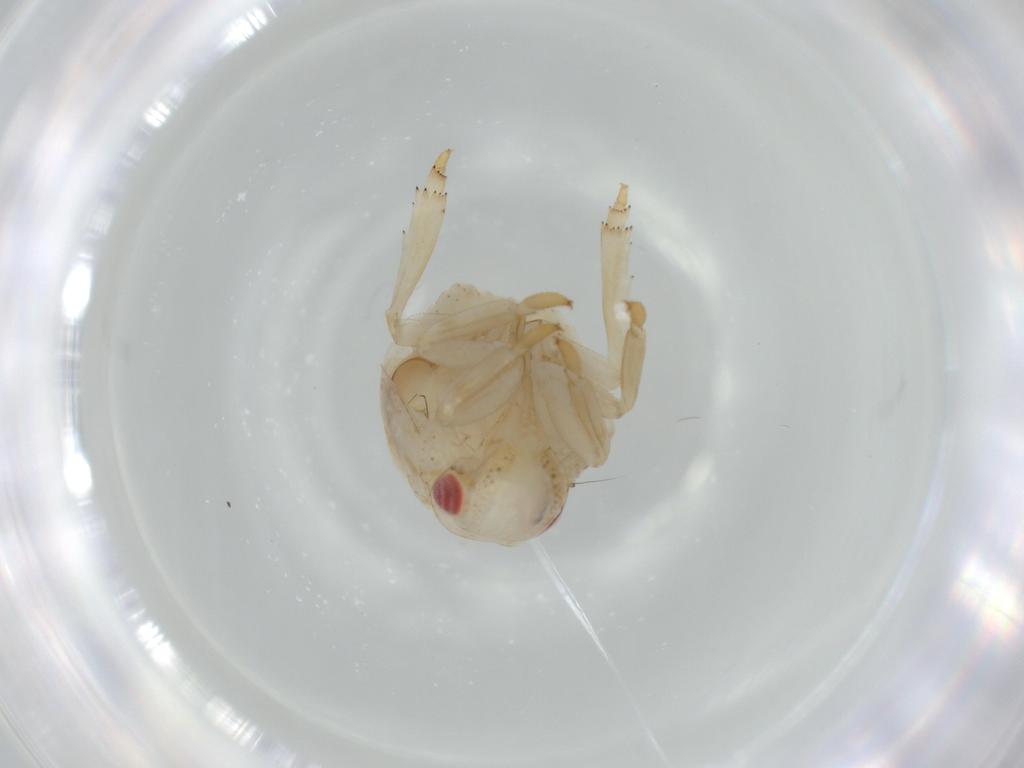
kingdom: Animalia
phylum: Arthropoda
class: Insecta
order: Hemiptera
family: Acanaloniidae
